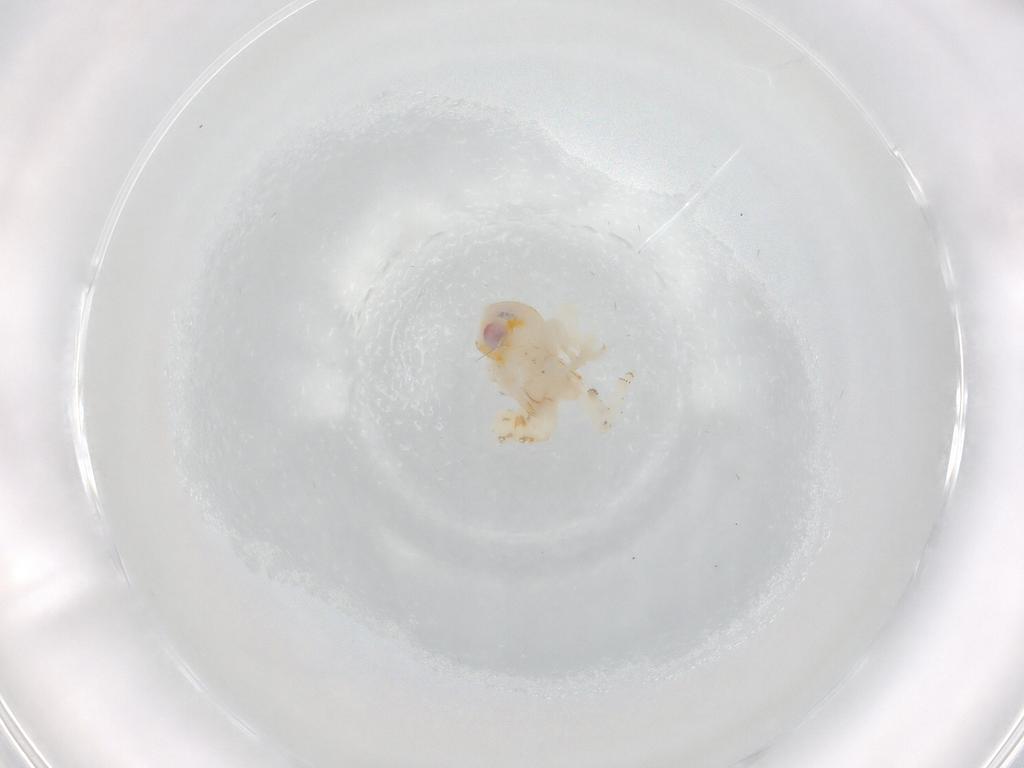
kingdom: Animalia
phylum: Arthropoda
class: Insecta
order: Hemiptera
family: Nogodinidae
